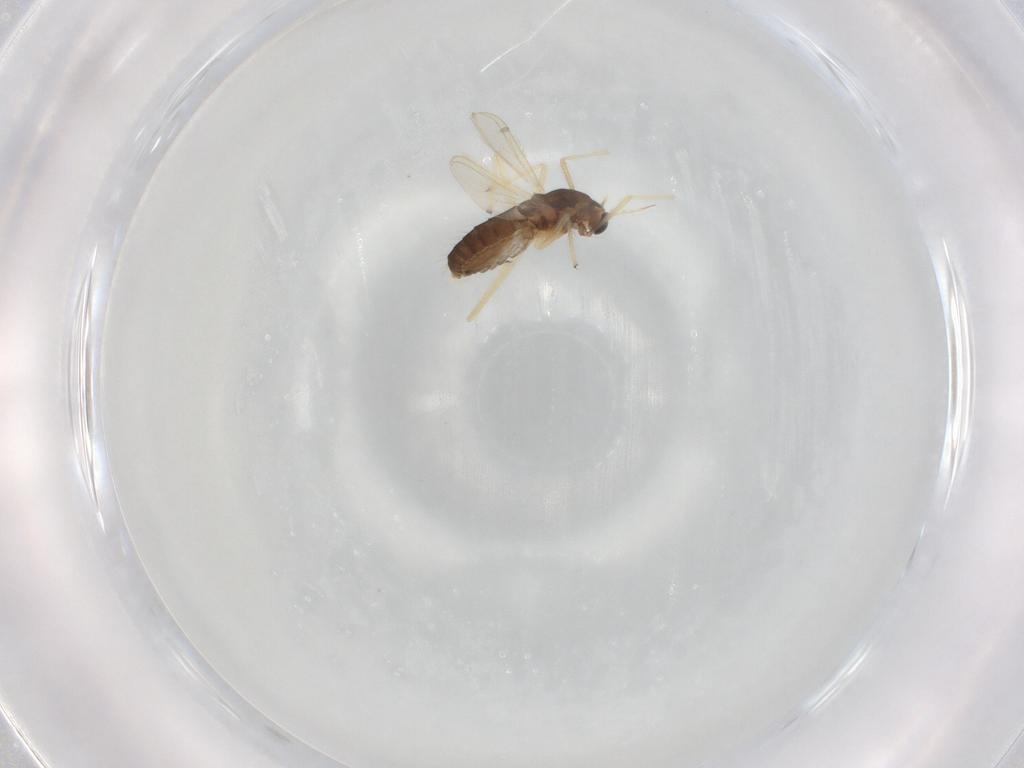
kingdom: Animalia
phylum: Arthropoda
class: Insecta
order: Diptera
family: Chironomidae
